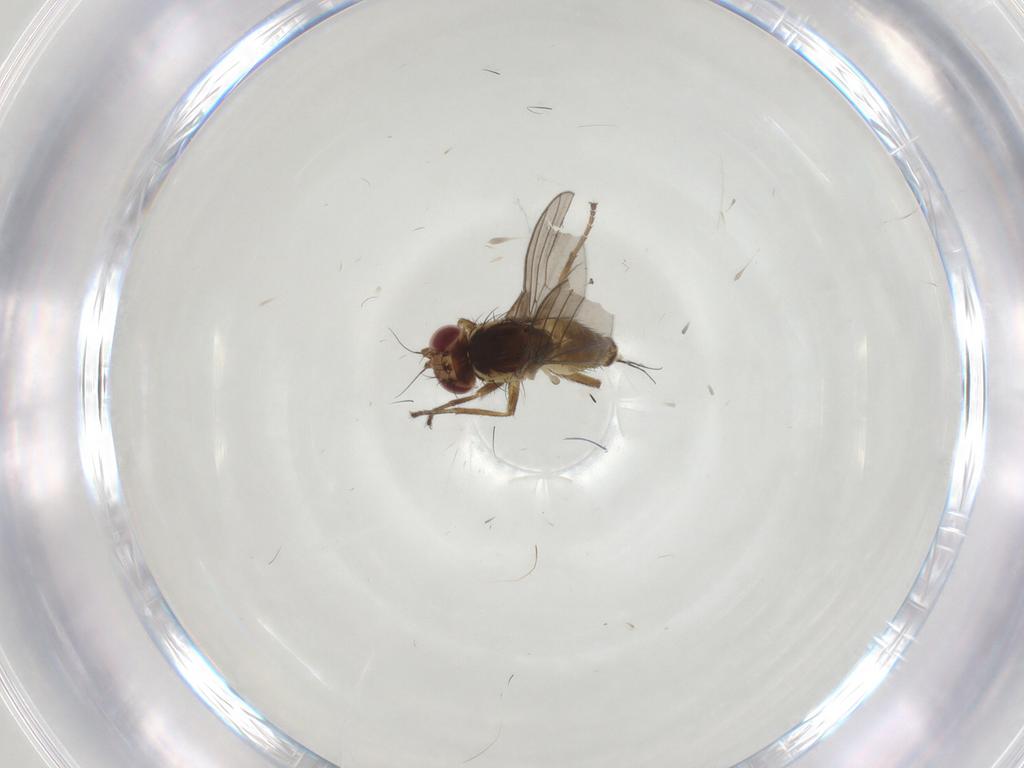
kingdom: Animalia
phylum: Arthropoda
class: Insecta
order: Diptera
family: Agromyzidae
